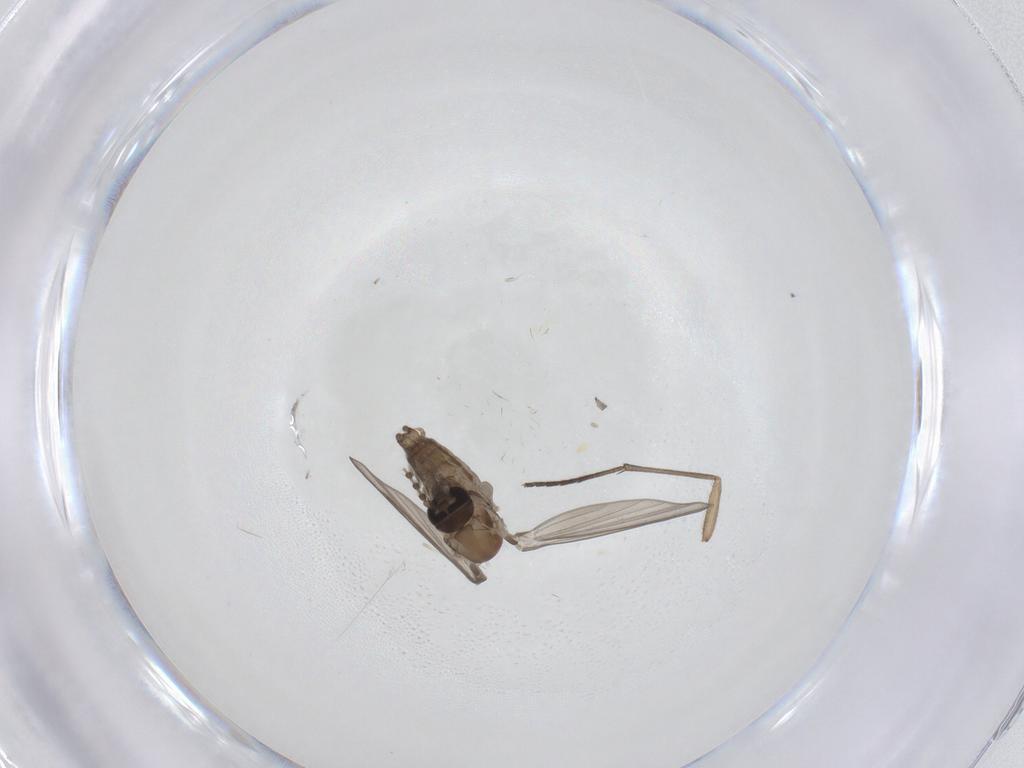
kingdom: Animalia
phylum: Arthropoda
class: Insecta
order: Diptera
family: Sciaridae
